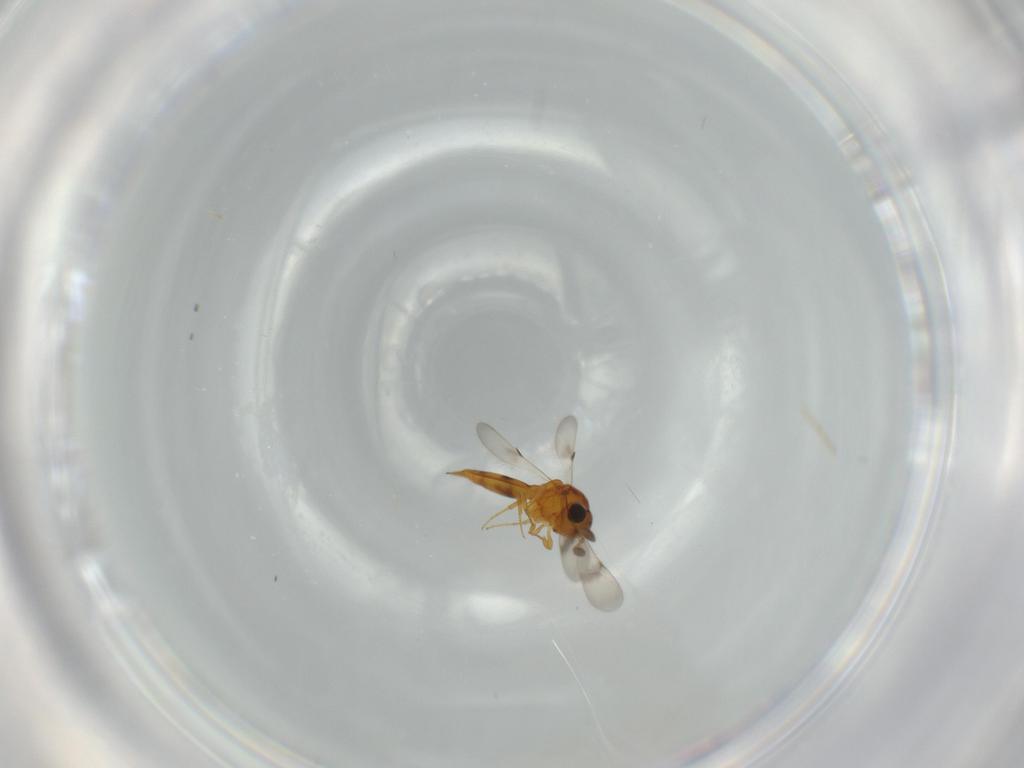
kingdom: Animalia
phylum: Arthropoda
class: Insecta
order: Hymenoptera
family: Scelionidae
